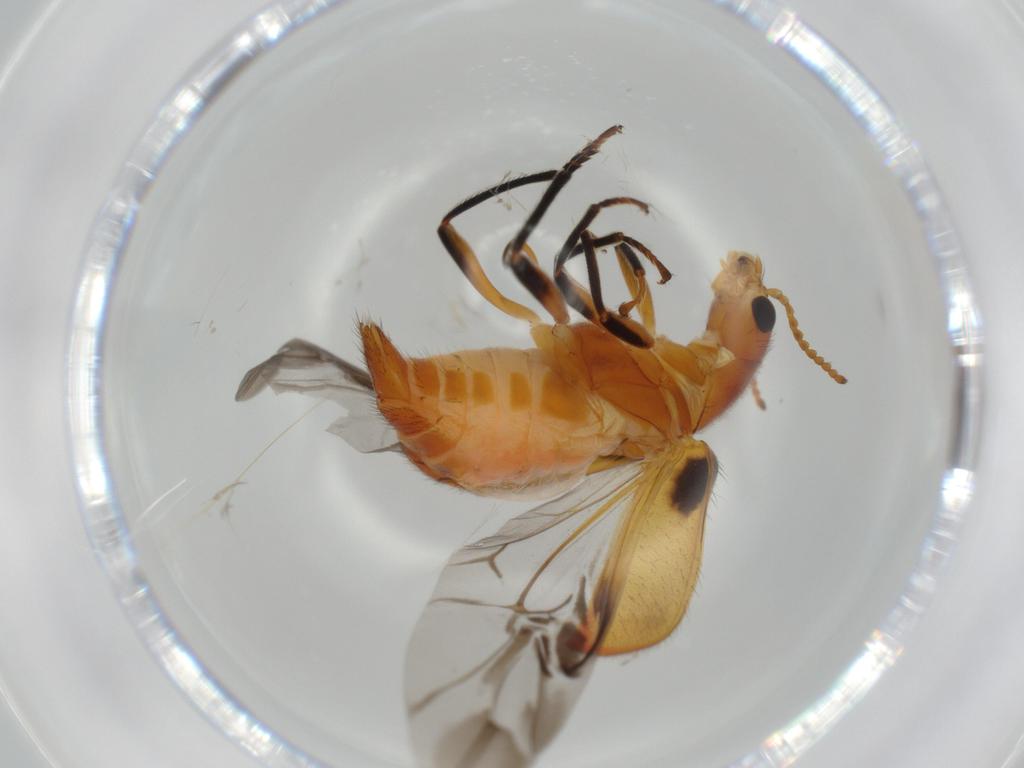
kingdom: Animalia
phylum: Arthropoda
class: Insecta
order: Coleoptera
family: Melyridae
